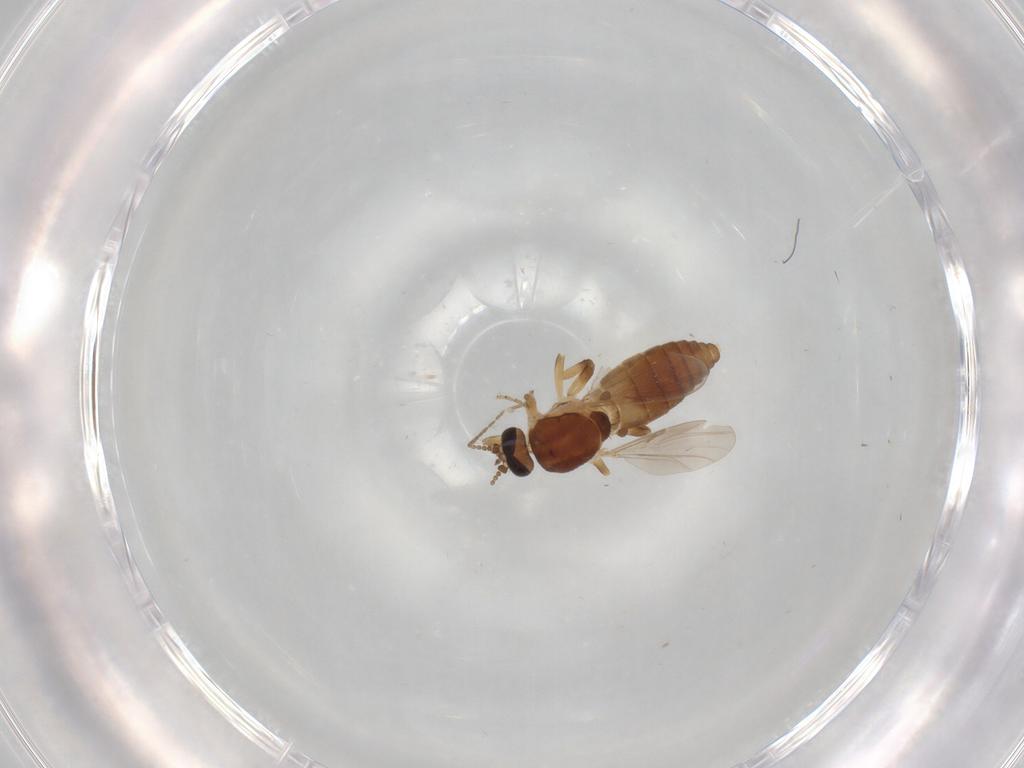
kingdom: Animalia
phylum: Arthropoda
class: Insecta
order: Diptera
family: Ceratopogonidae
